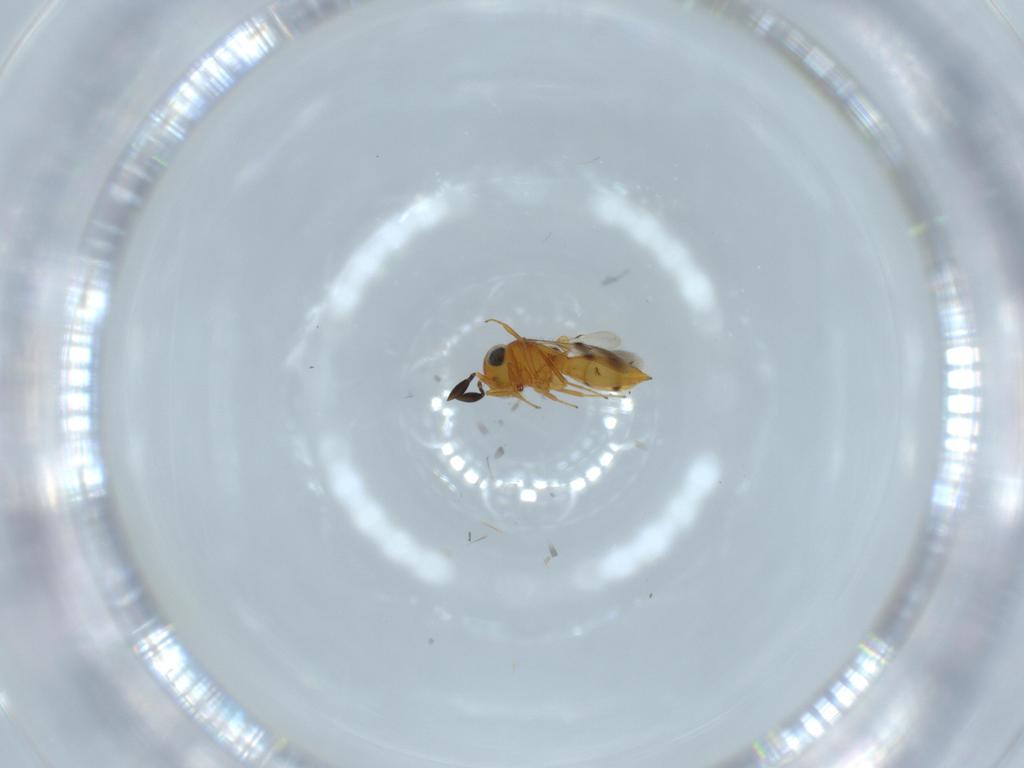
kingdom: Animalia
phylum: Arthropoda
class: Insecta
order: Hymenoptera
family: Scelionidae
